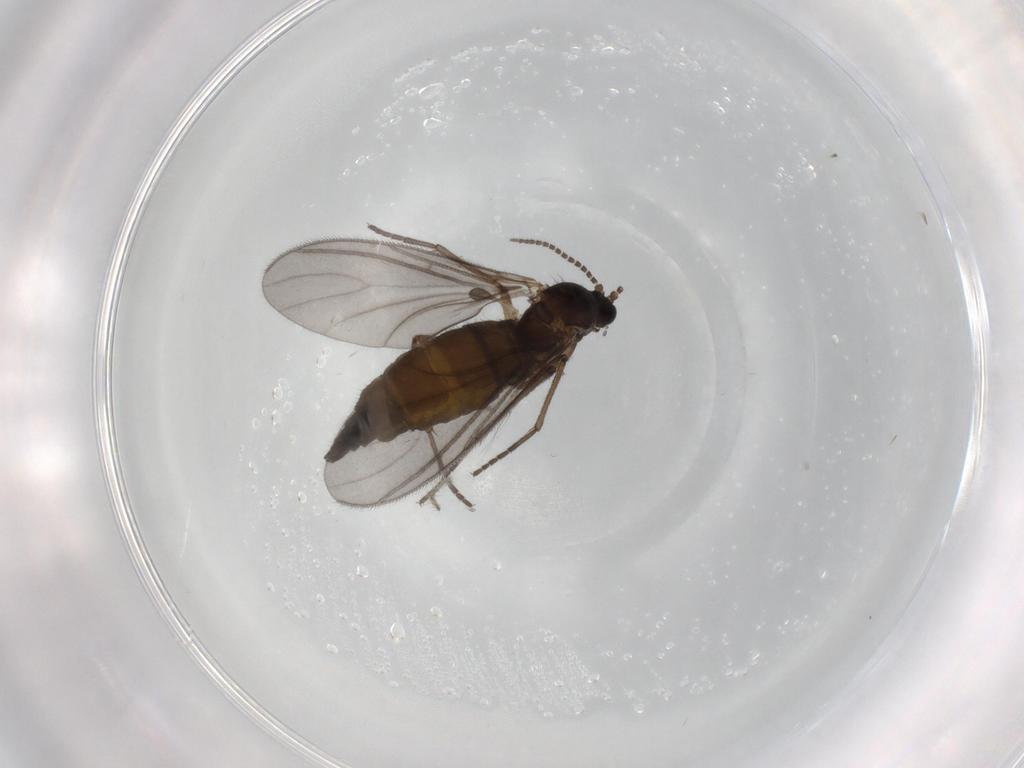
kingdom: Animalia
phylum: Arthropoda
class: Insecta
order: Diptera
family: Sciaridae
